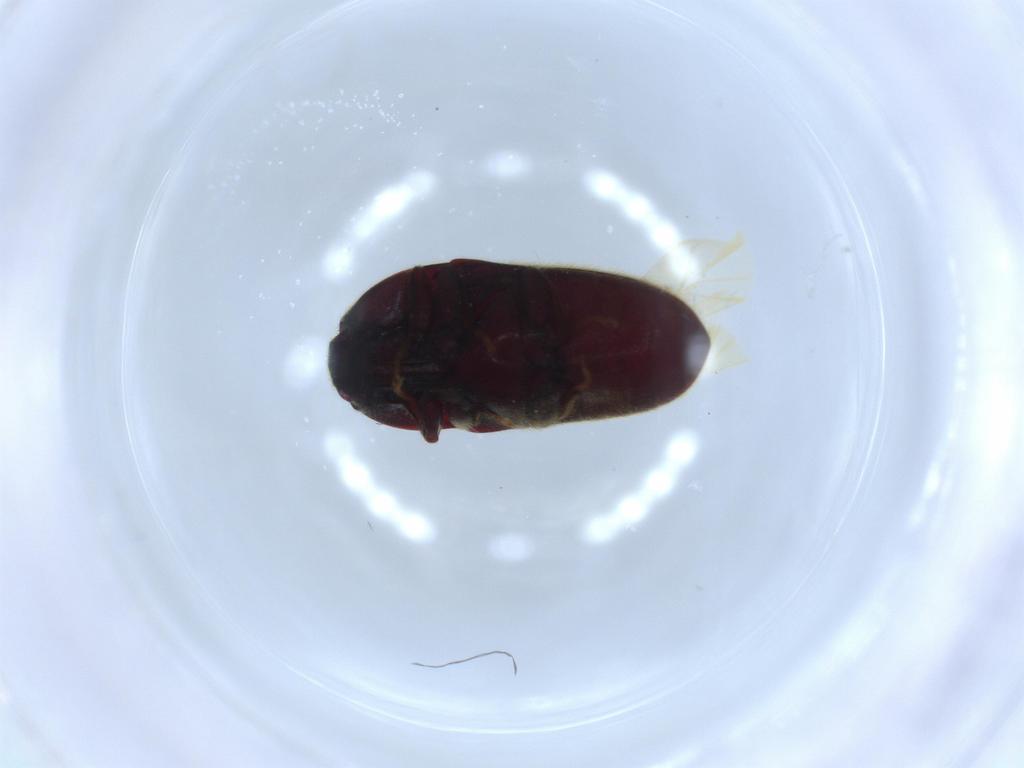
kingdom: Animalia
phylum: Arthropoda
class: Insecta
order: Coleoptera
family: Throscidae
